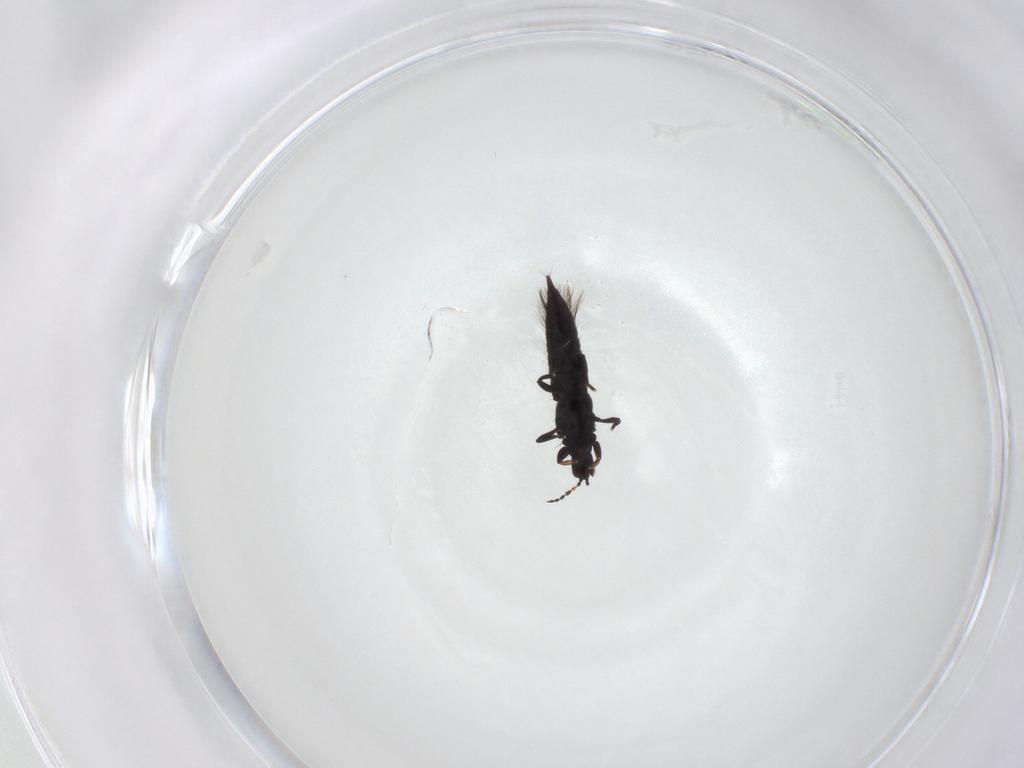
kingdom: Animalia
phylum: Arthropoda
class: Insecta
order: Thysanoptera
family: Phlaeothripidae
